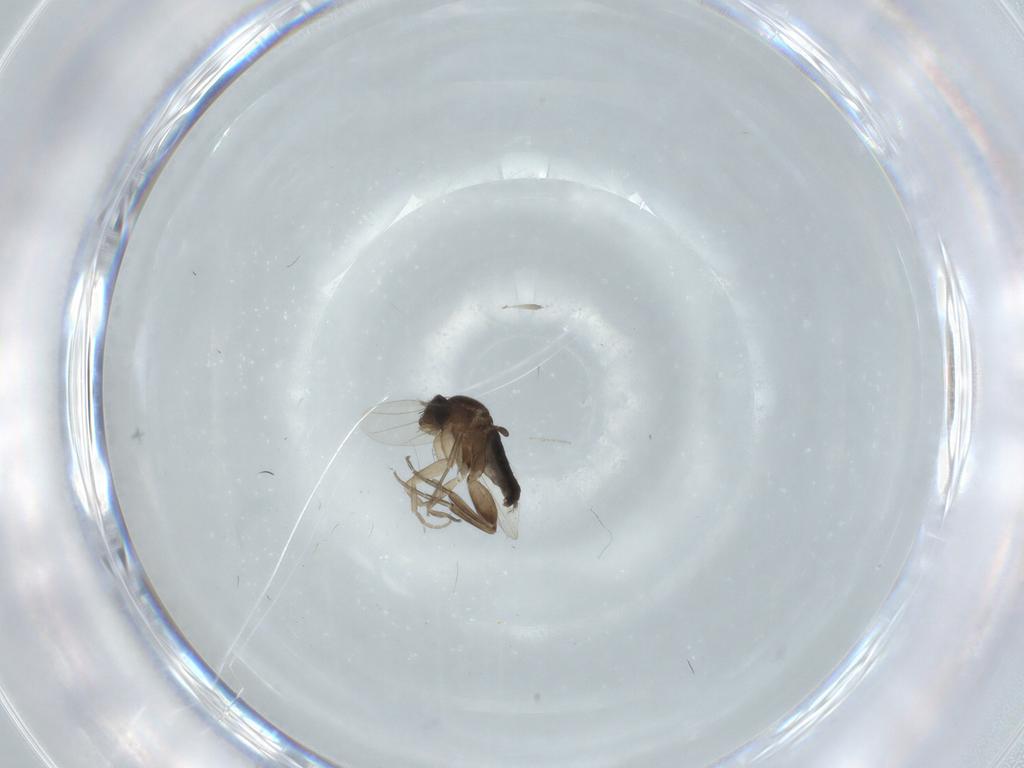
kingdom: Animalia
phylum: Arthropoda
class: Insecta
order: Diptera
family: Phoridae
